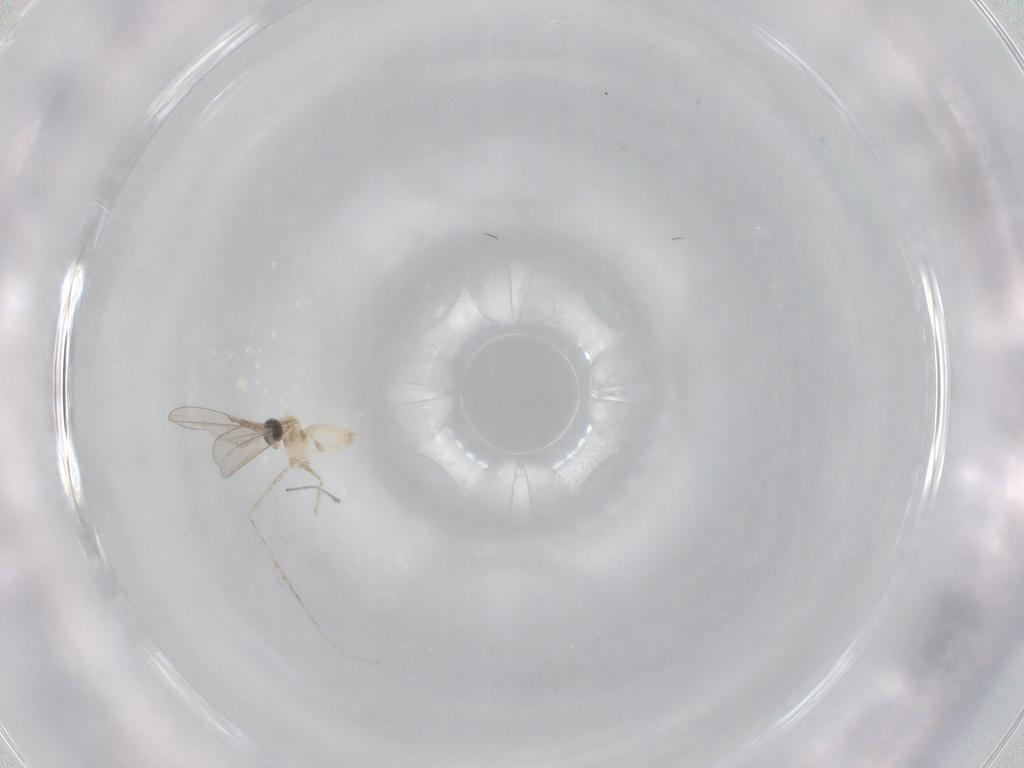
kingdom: Animalia
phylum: Arthropoda
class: Insecta
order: Diptera
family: Cecidomyiidae
